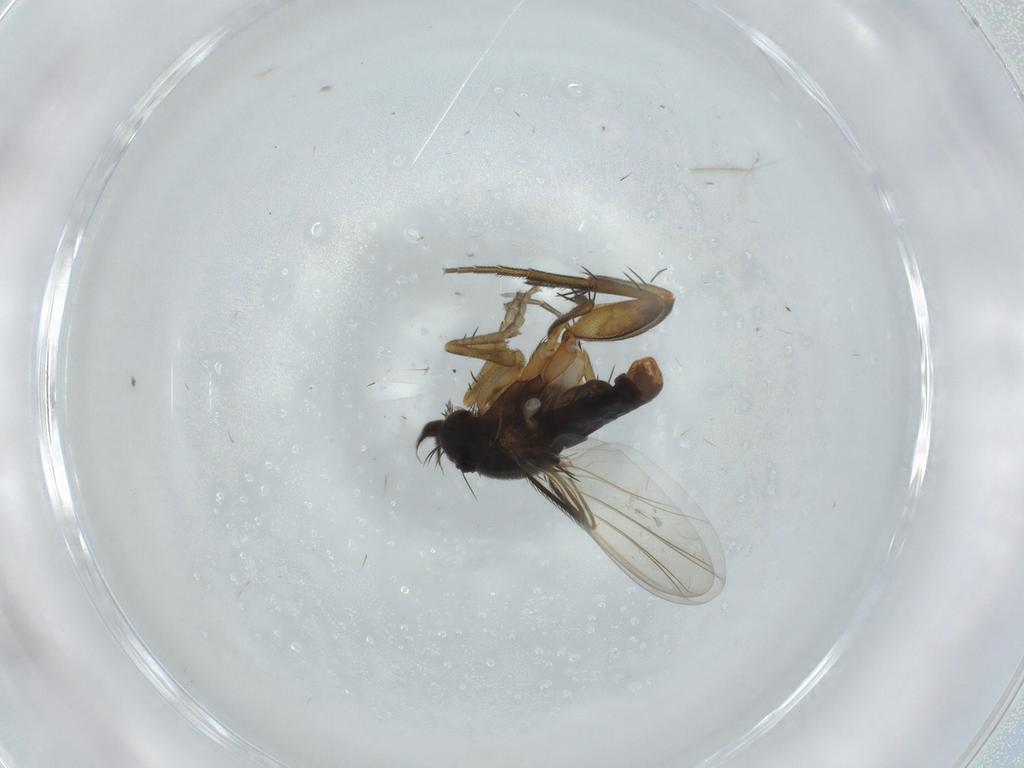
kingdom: Animalia
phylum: Arthropoda
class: Insecta
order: Diptera
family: Phoridae
